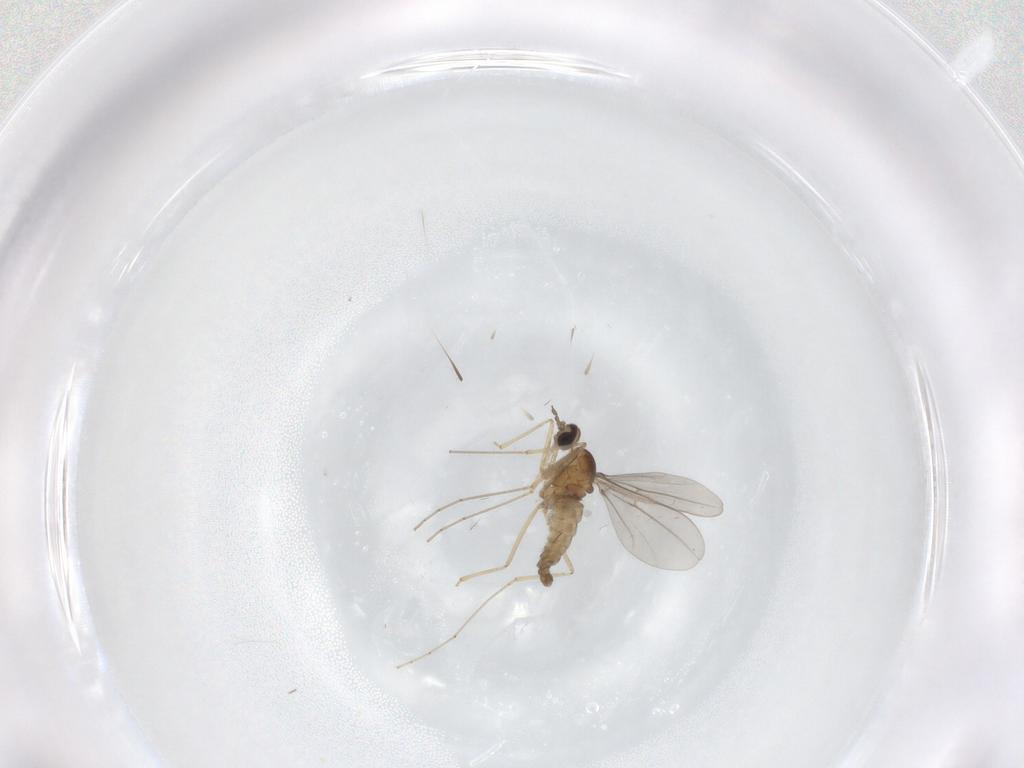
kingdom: Animalia
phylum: Arthropoda
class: Insecta
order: Diptera
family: Cecidomyiidae
